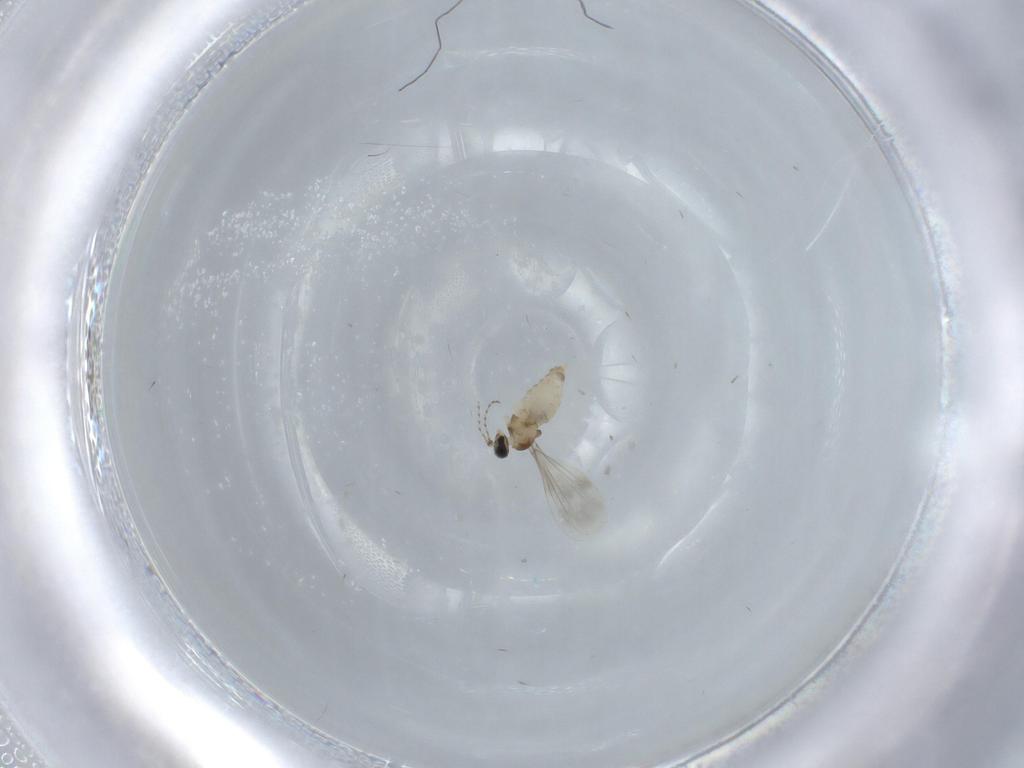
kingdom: Animalia
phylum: Arthropoda
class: Insecta
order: Diptera
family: Cecidomyiidae
